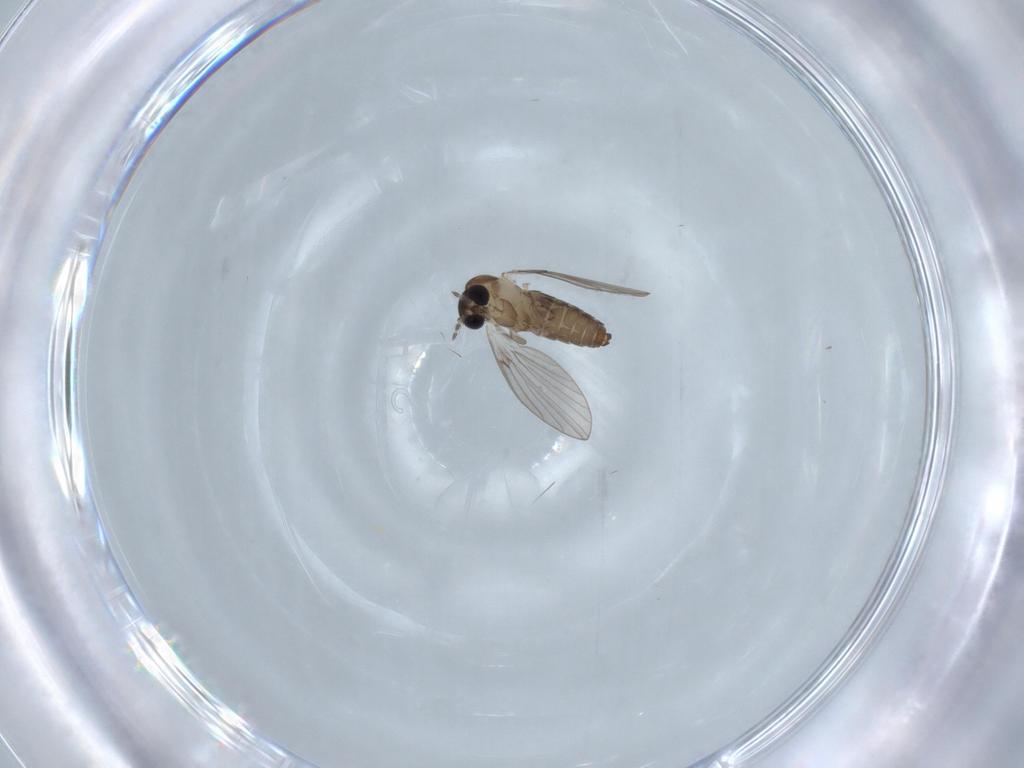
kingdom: Animalia
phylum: Arthropoda
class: Insecta
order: Diptera
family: Psychodidae
